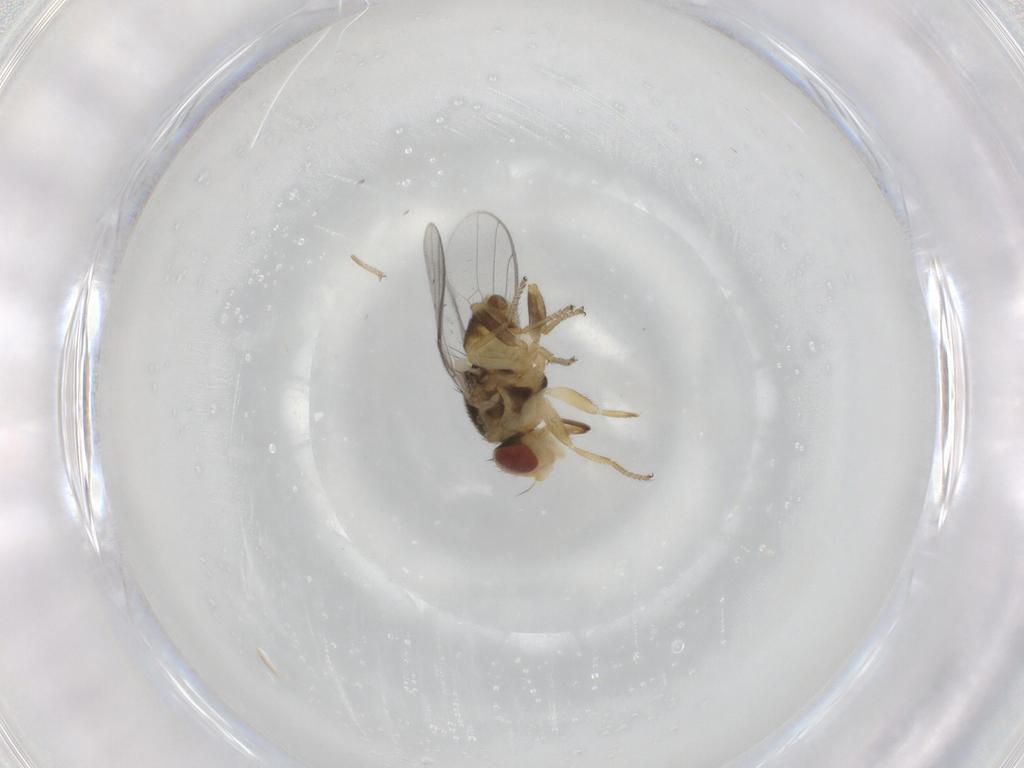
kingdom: Animalia
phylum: Arthropoda
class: Insecta
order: Diptera
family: Chloropidae
